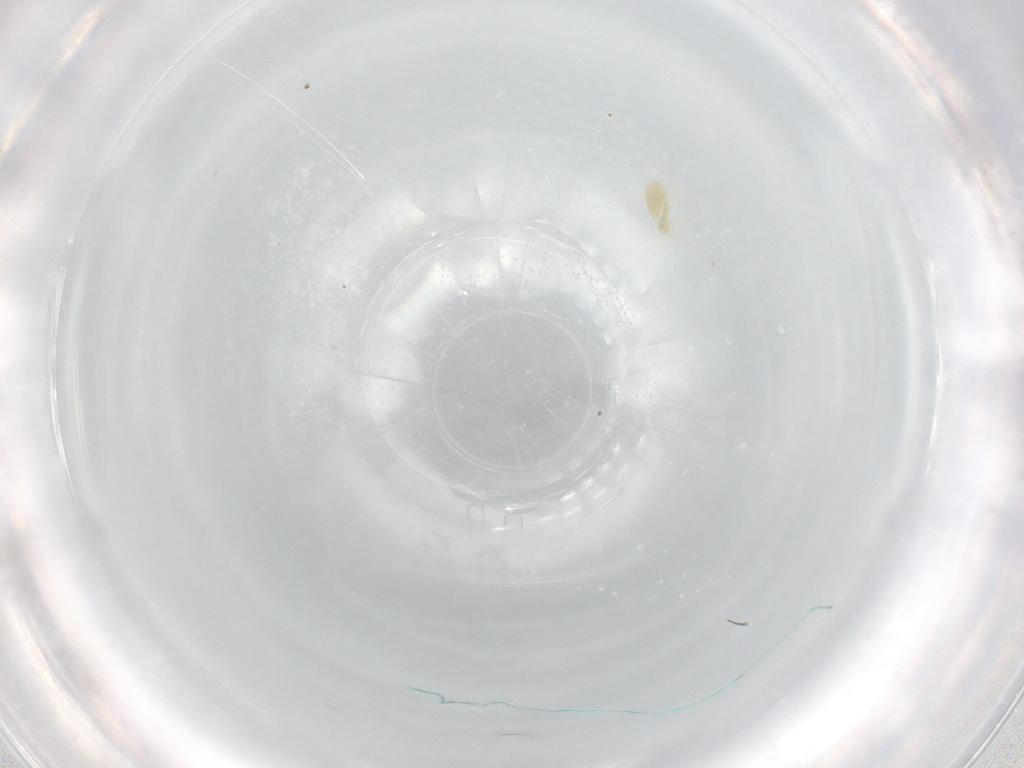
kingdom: Animalia
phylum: Arthropoda
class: Arachnida
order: Trombidiformes
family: Eupodidae
